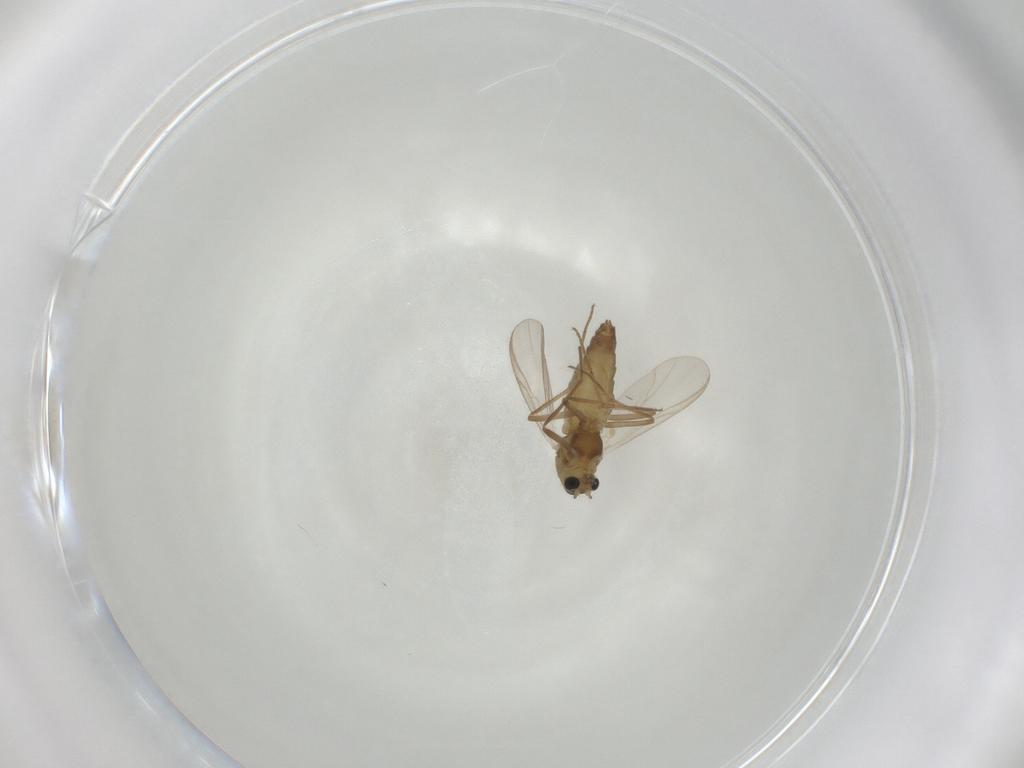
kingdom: Animalia
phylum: Arthropoda
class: Insecta
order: Diptera
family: Chironomidae
